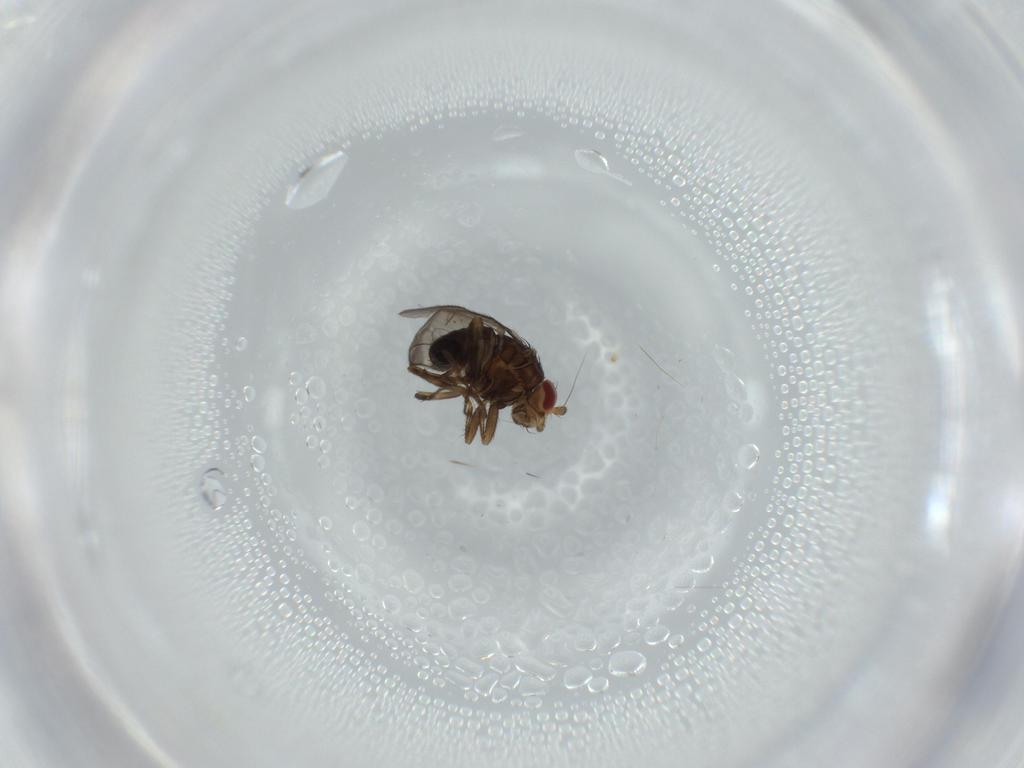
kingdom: Animalia
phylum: Arthropoda
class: Insecta
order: Diptera
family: Sphaeroceridae
